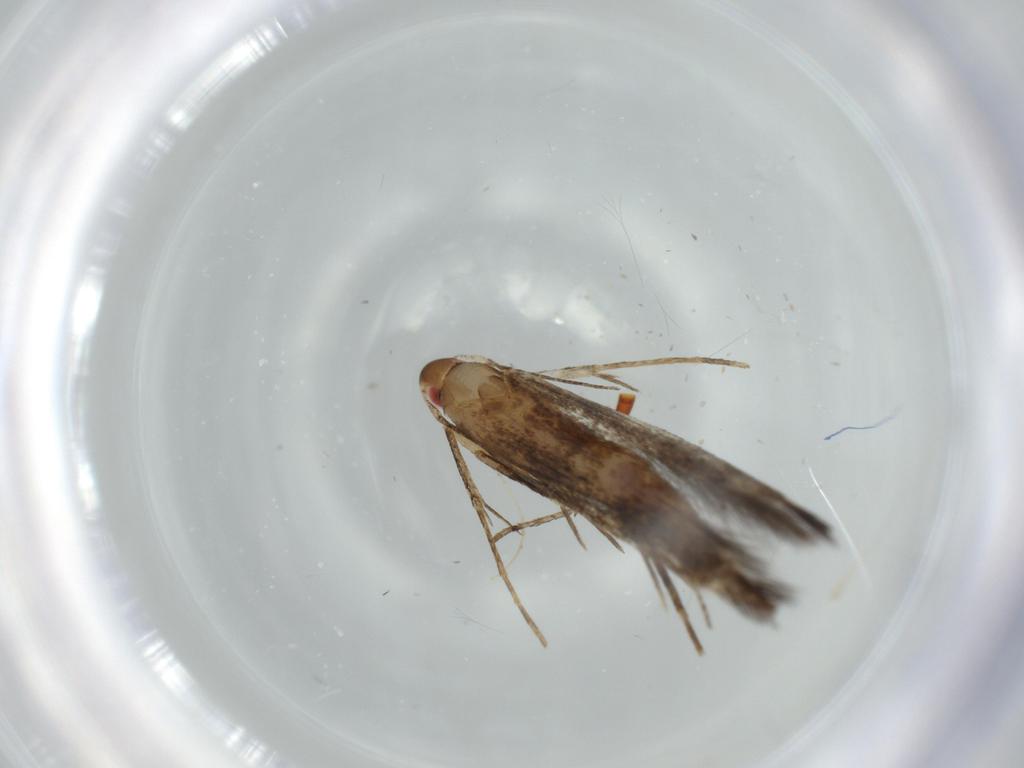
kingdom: Animalia
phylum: Arthropoda
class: Insecta
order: Lepidoptera
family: Cosmopterigidae
